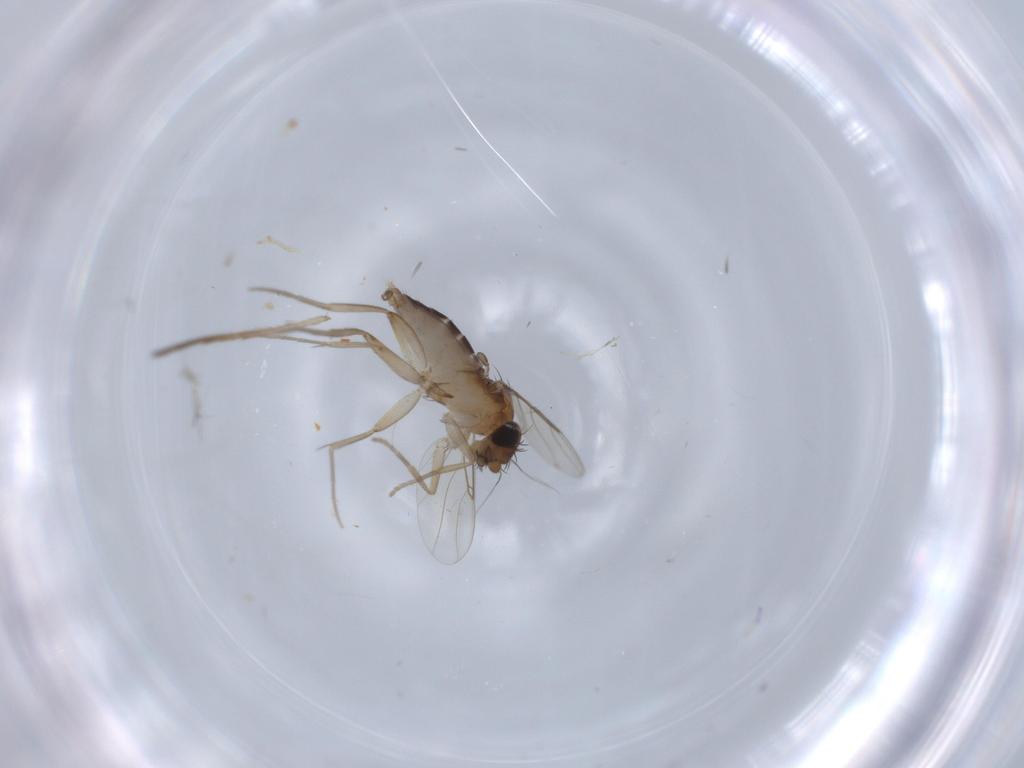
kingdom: Animalia
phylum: Arthropoda
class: Insecta
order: Diptera
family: Phoridae
